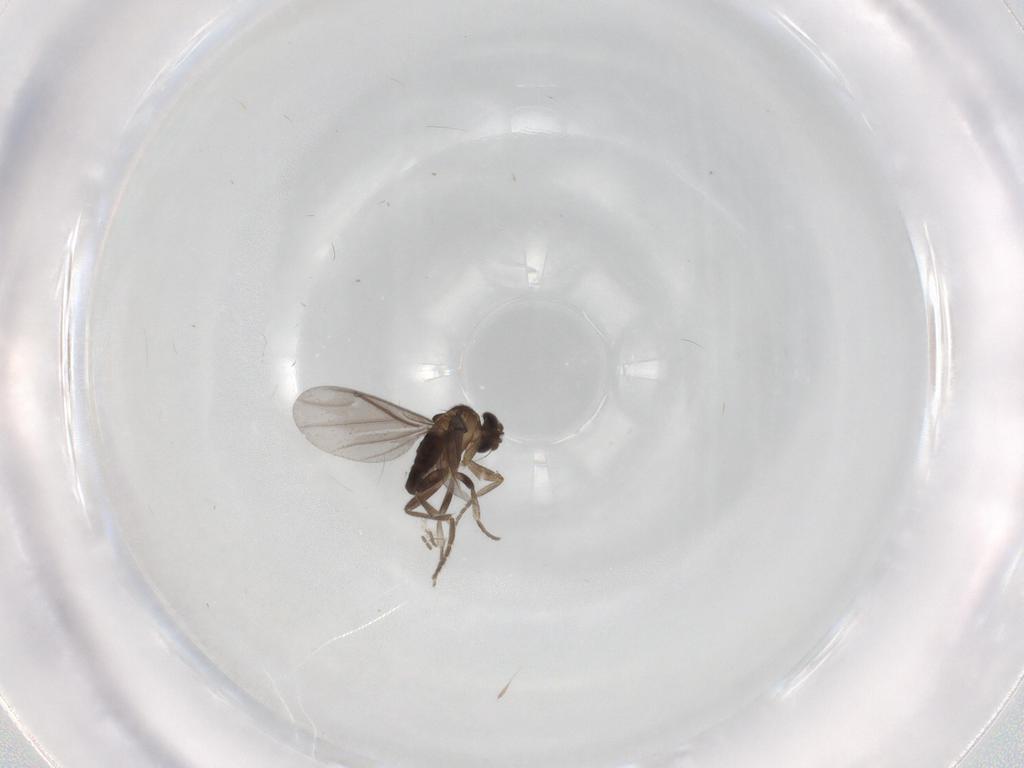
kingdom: Animalia
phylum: Arthropoda
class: Insecta
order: Diptera
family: Cecidomyiidae
